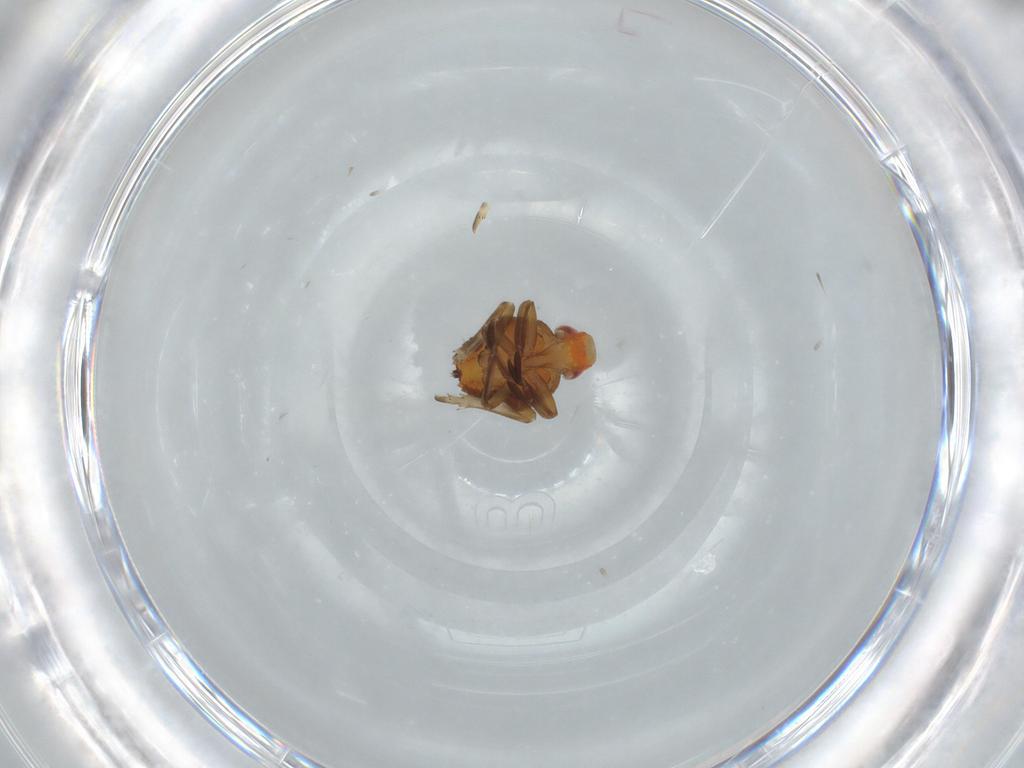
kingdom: Animalia
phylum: Arthropoda
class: Insecta
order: Hemiptera
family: Fulgoroidea_incertae_sedis
